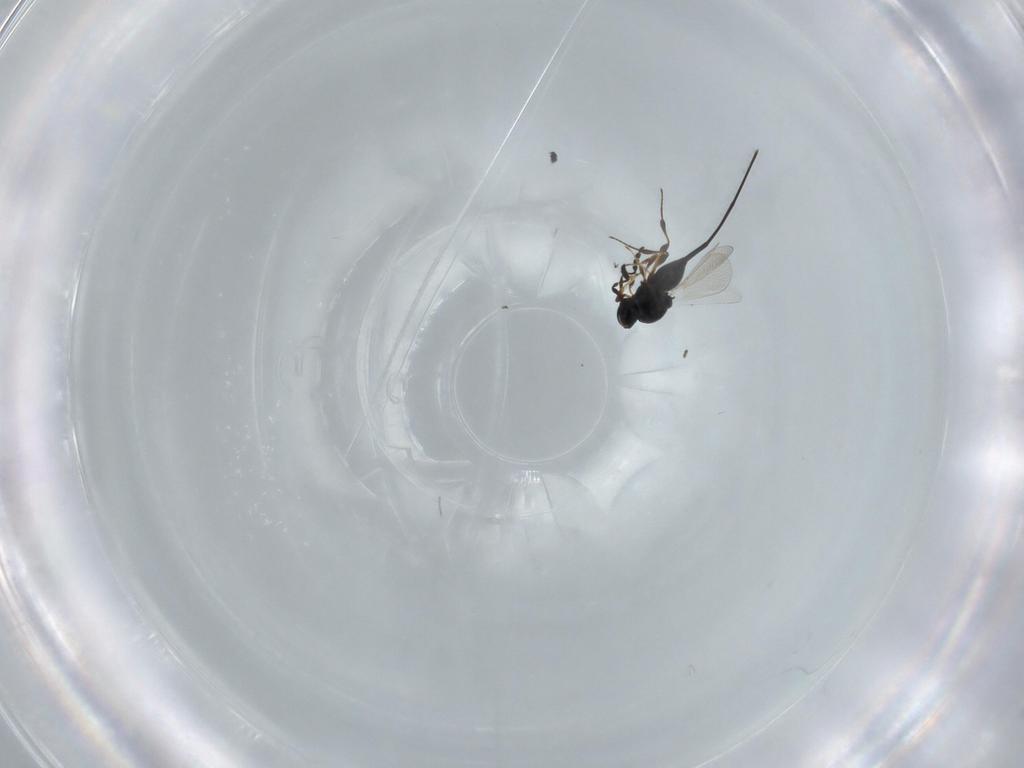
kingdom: Animalia
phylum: Arthropoda
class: Insecta
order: Hymenoptera
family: Platygastridae
